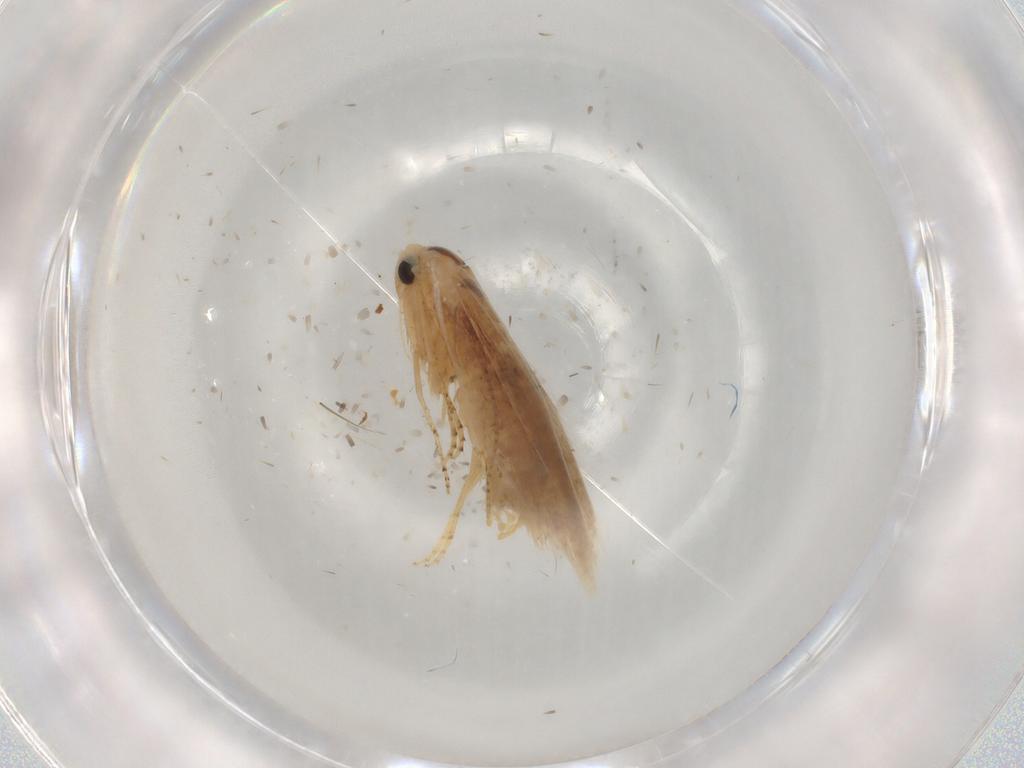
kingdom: Animalia
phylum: Arthropoda
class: Insecta
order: Lepidoptera
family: Bucculatricidae
